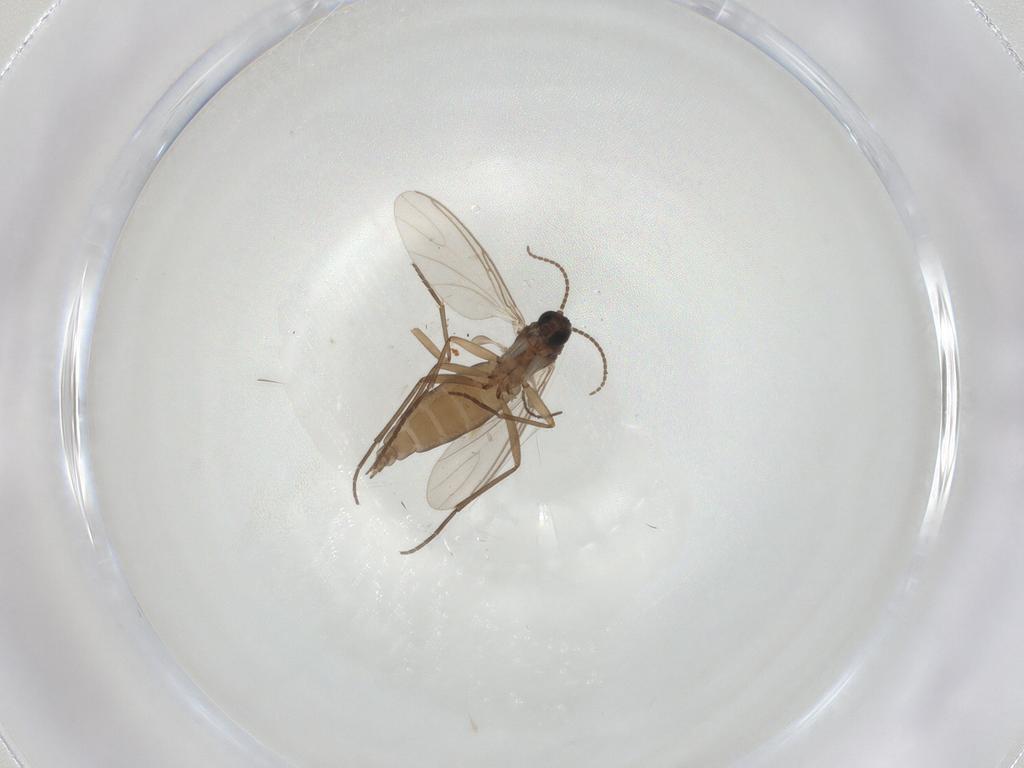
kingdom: Animalia
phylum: Arthropoda
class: Insecta
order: Diptera
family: Sciaridae
